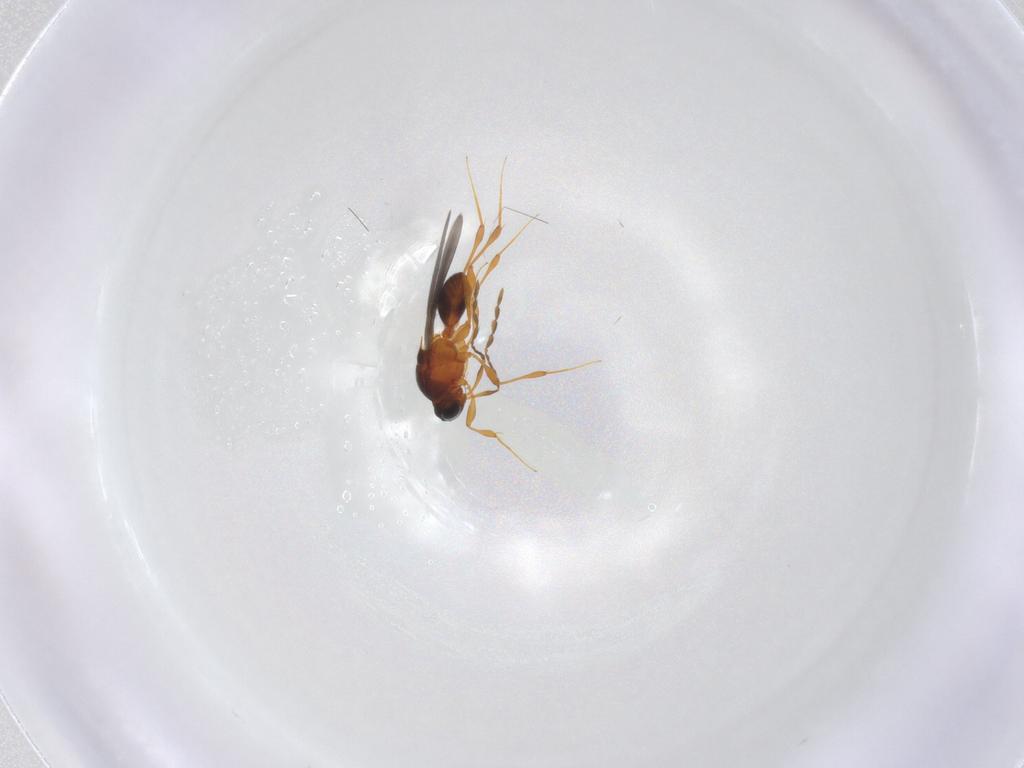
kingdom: Animalia
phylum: Arthropoda
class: Insecta
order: Hymenoptera
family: Platygastridae
